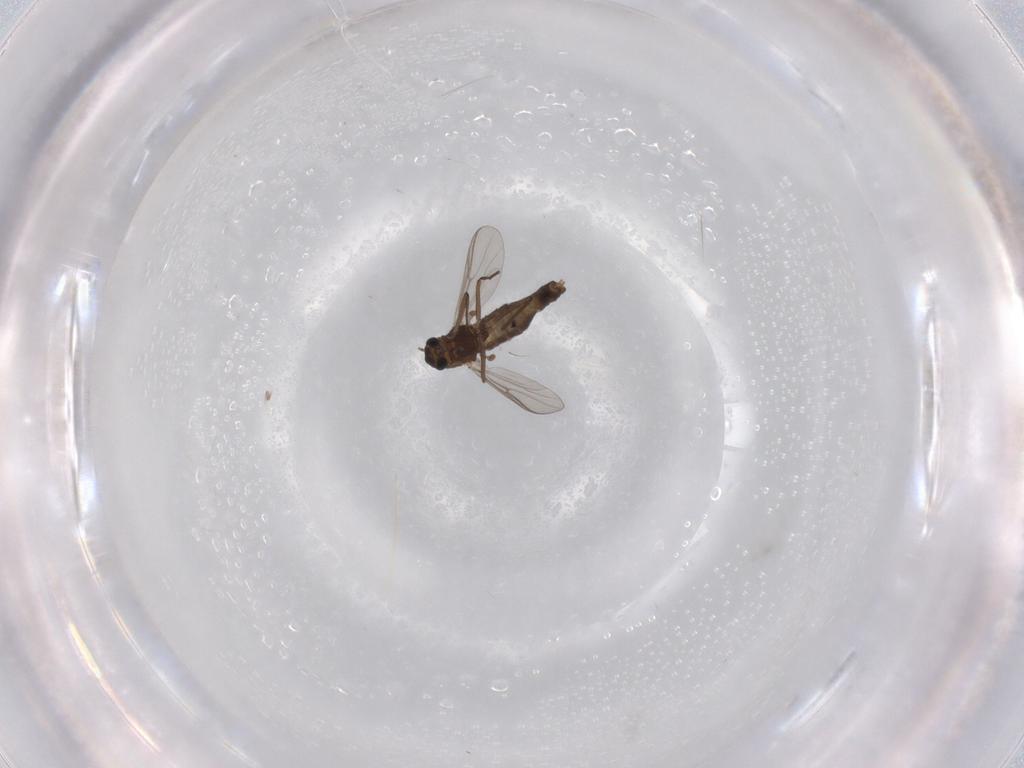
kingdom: Animalia
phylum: Arthropoda
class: Insecta
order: Diptera
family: Chironomidae
